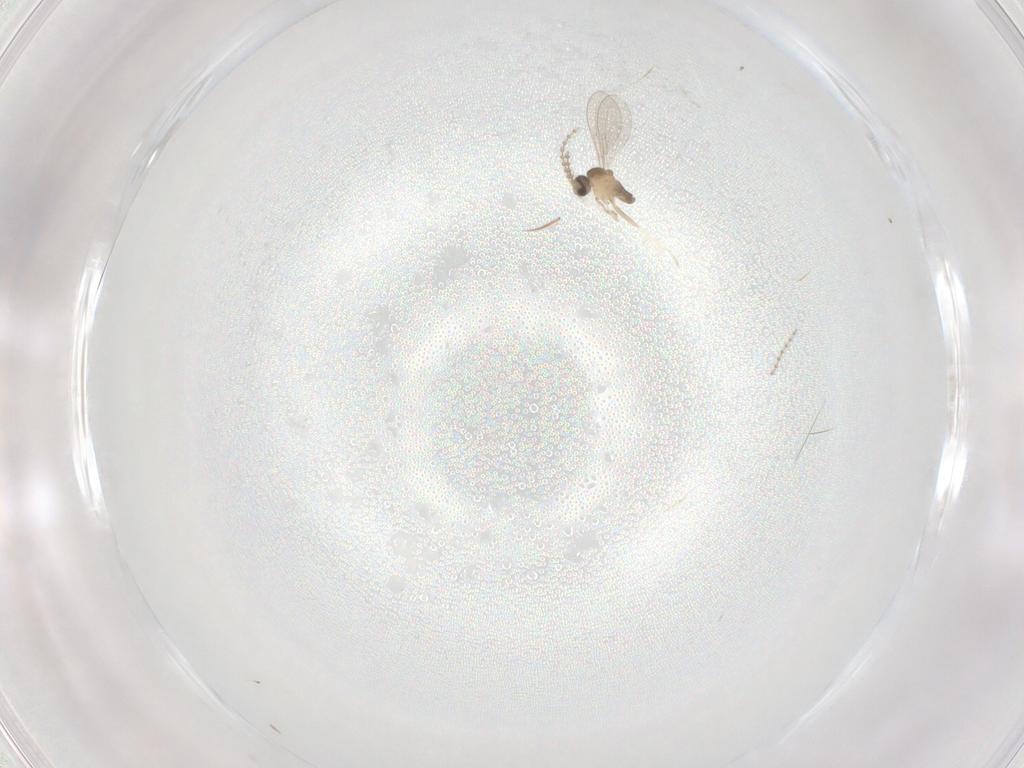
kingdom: Animalia
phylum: Arthropoda
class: Insecta
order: Diptera
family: Cecidomyiidae
